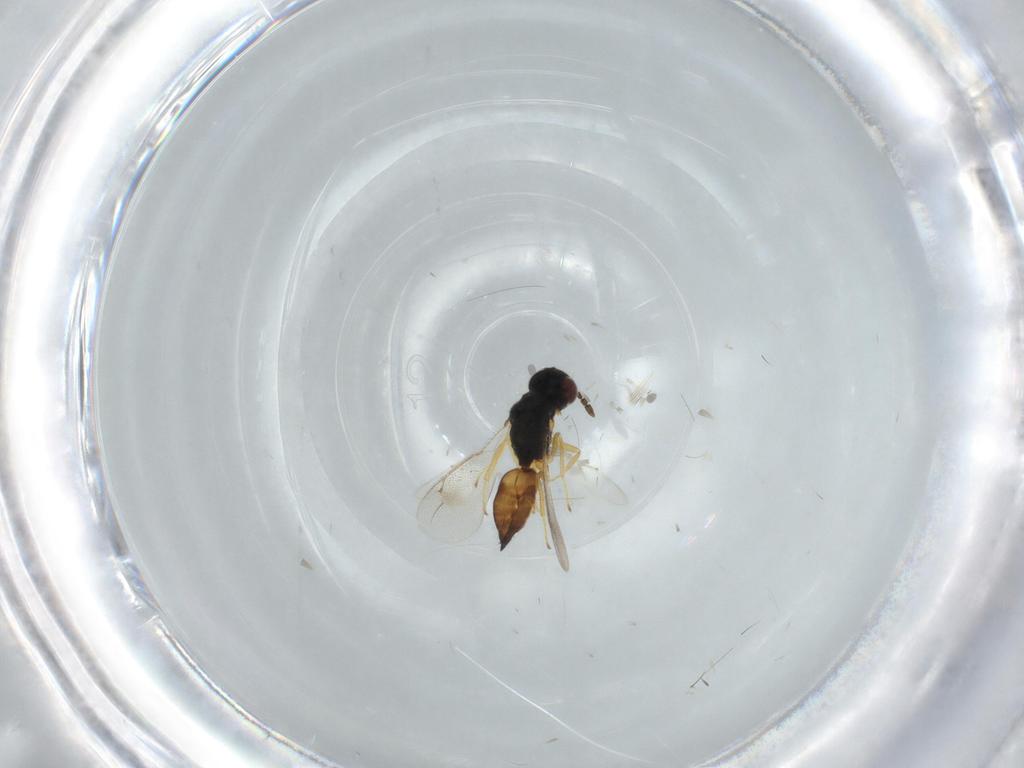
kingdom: Animalia
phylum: Arthropoda
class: Insecta
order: Hymenoptera
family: Eulophidae
